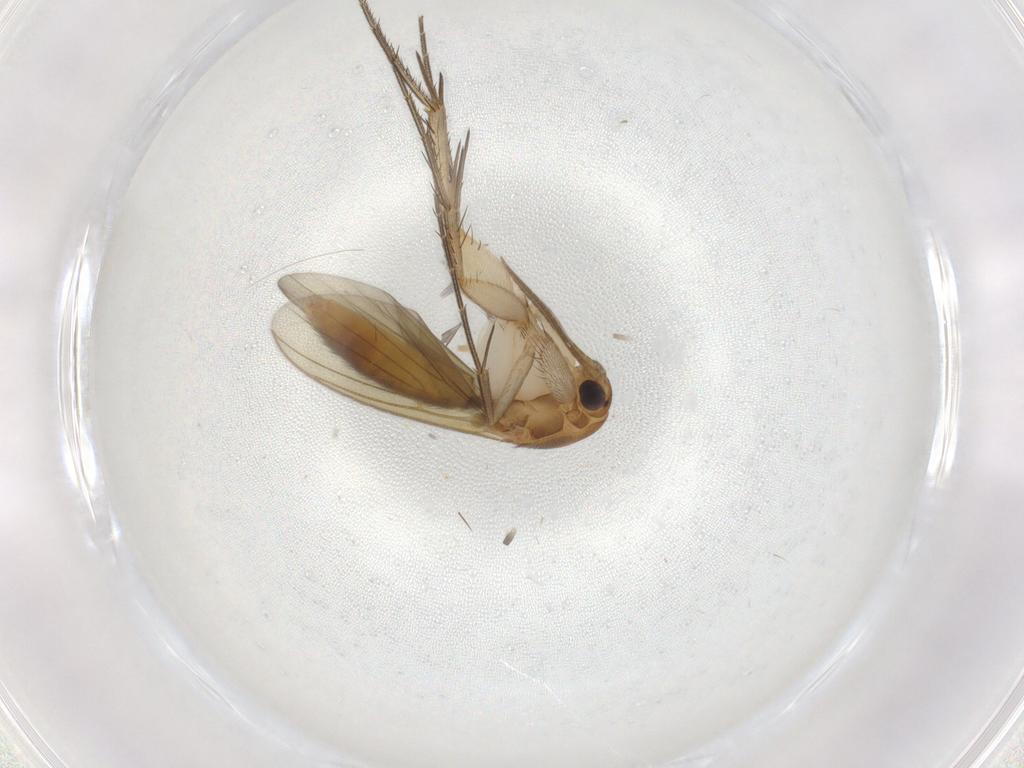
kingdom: Animalia
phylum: Arthropoda
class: Insecta
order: Diptera
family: Mycetophilidae
